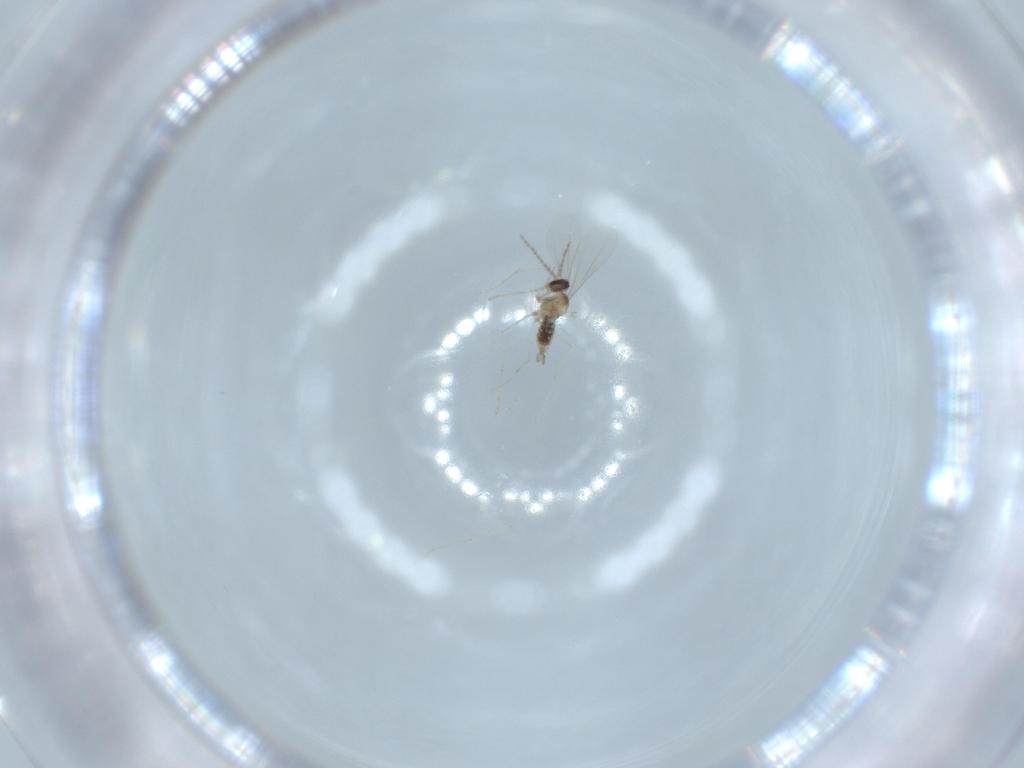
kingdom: Animalia
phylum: Arthropoda
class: Insecta
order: Diptera
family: Cecidomyiidae
